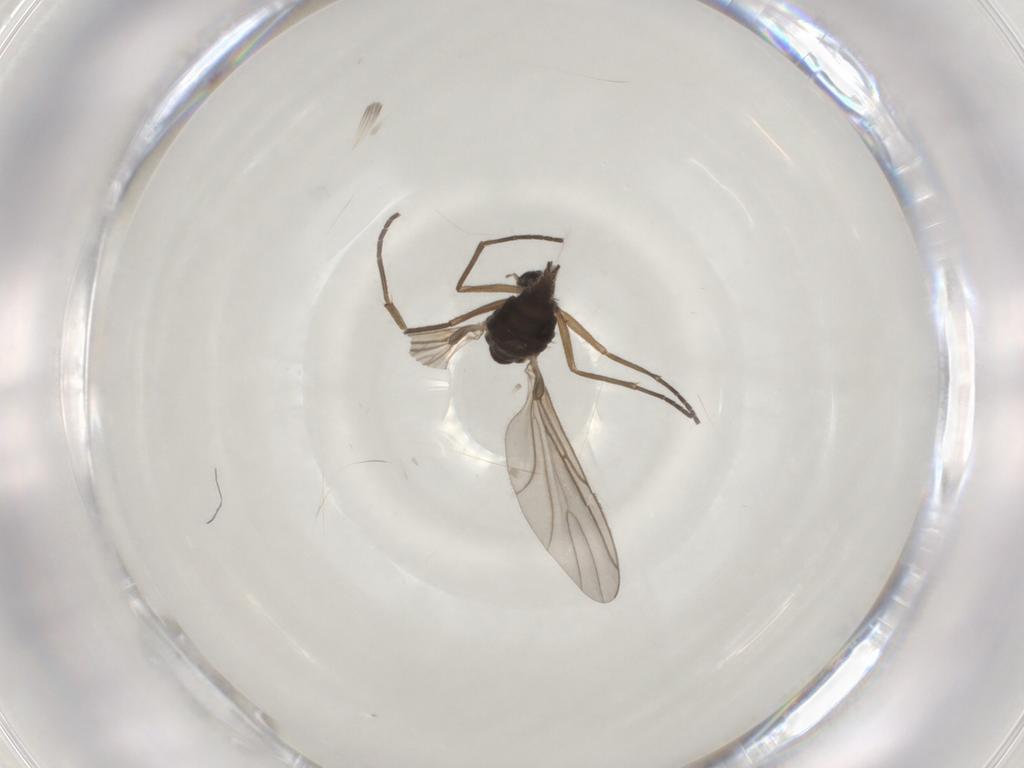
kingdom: Animalia
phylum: Arthropoda
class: Insecta
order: Diptera
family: Sciaridae
